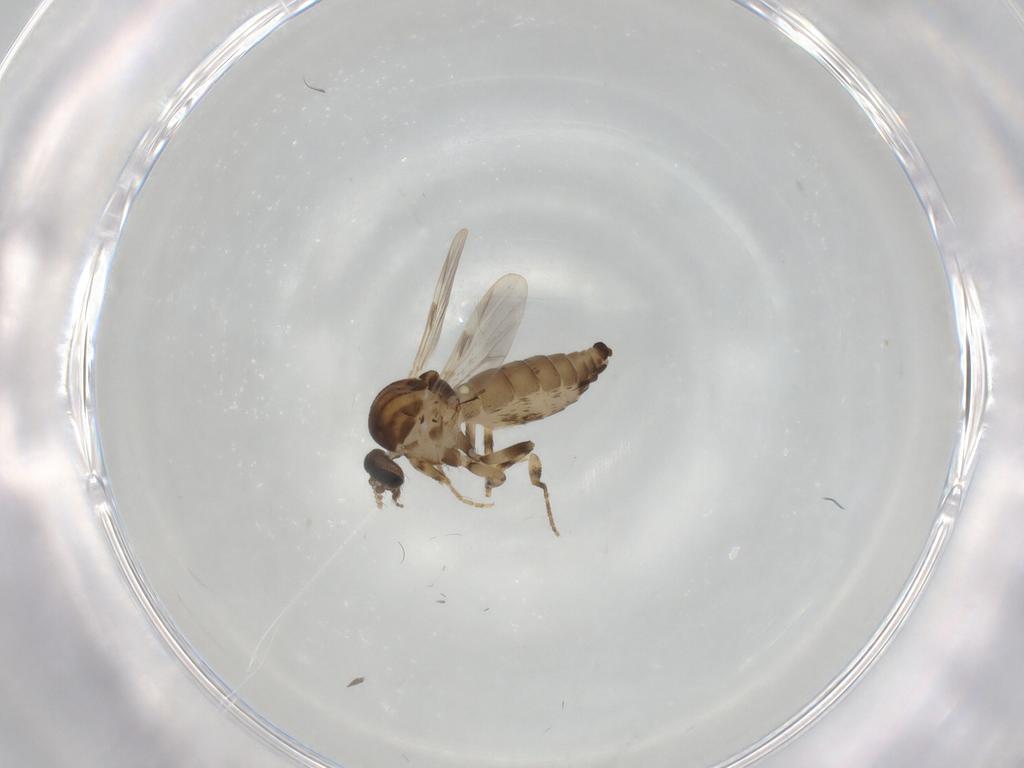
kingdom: Animalia
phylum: Arthropoda
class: Insecta
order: Diptera
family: Ceratopogonidae
